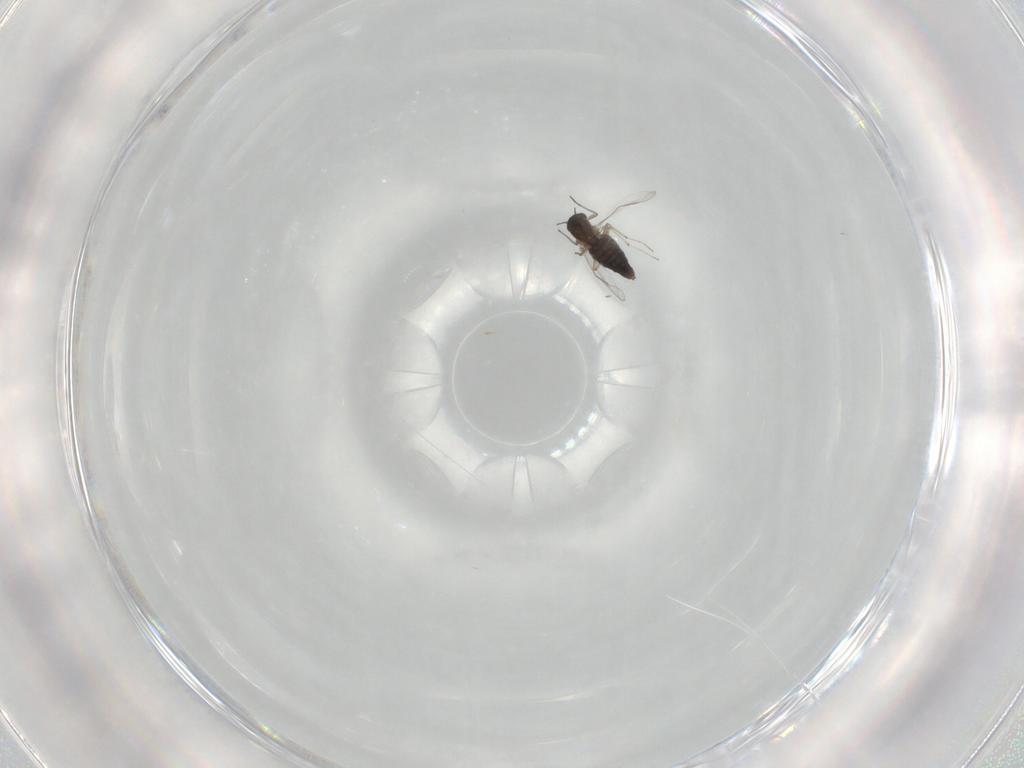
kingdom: Animalia
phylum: Arthropoda
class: Insecta
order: Diptera
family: Chironomidae
